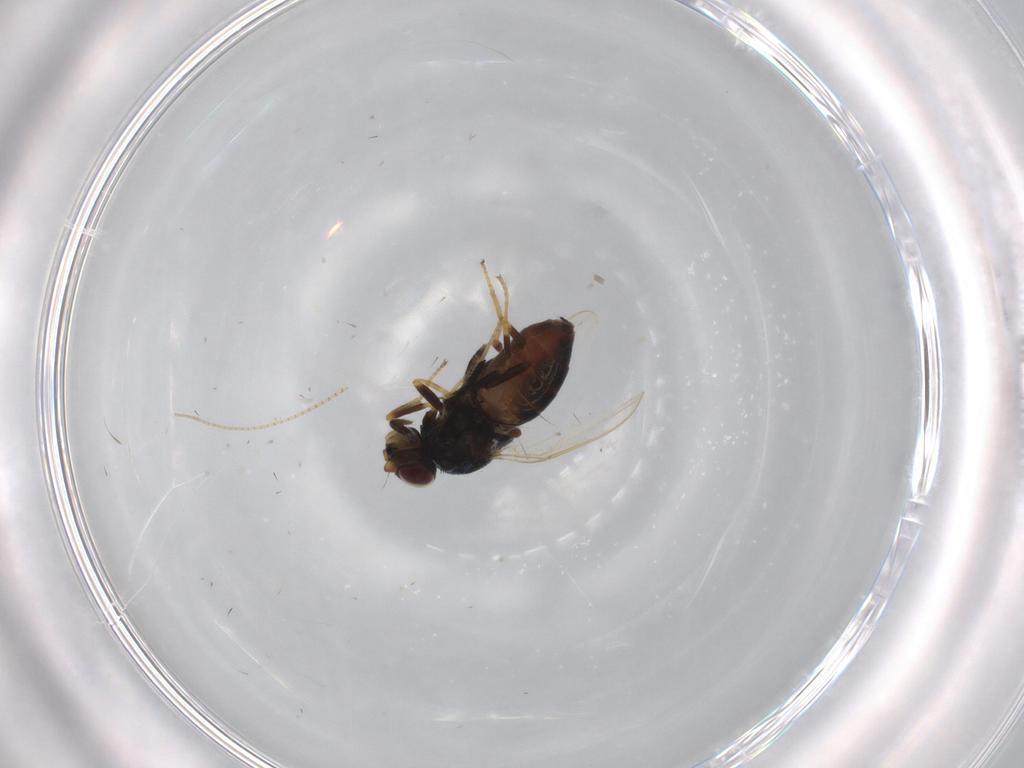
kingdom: Animalia
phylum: Arthropoda
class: Insecta
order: Diptera
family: Chloropidae
